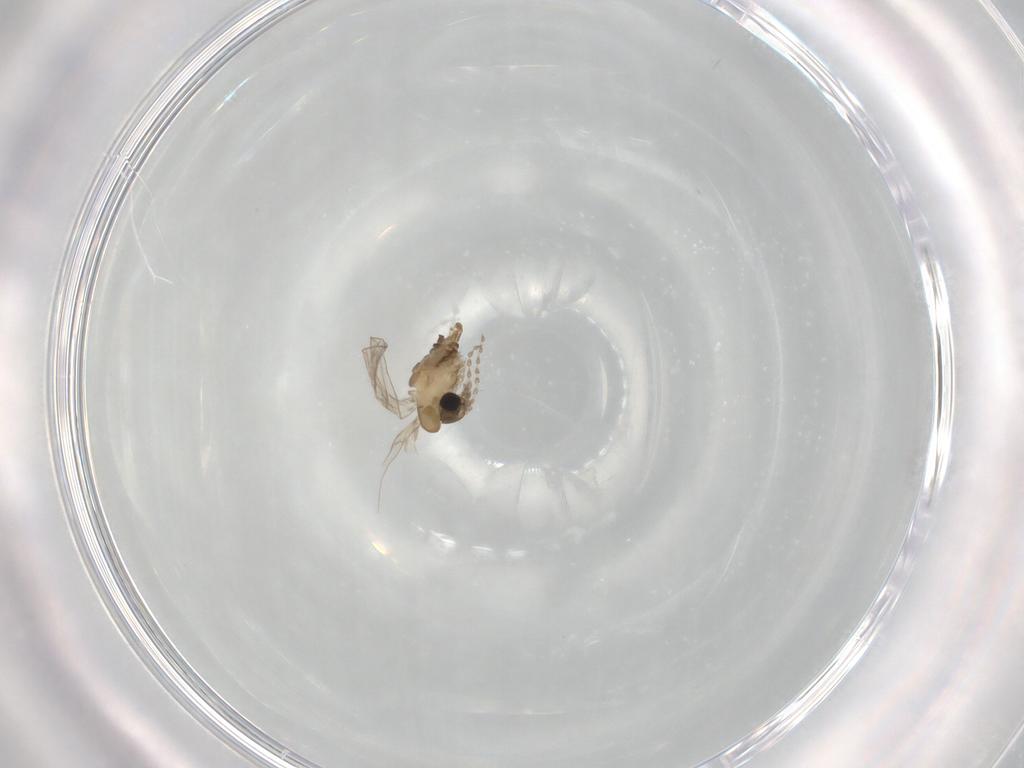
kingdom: Animalia
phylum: Arthropoda
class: Insecta
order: Diptera
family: Psychodidae
